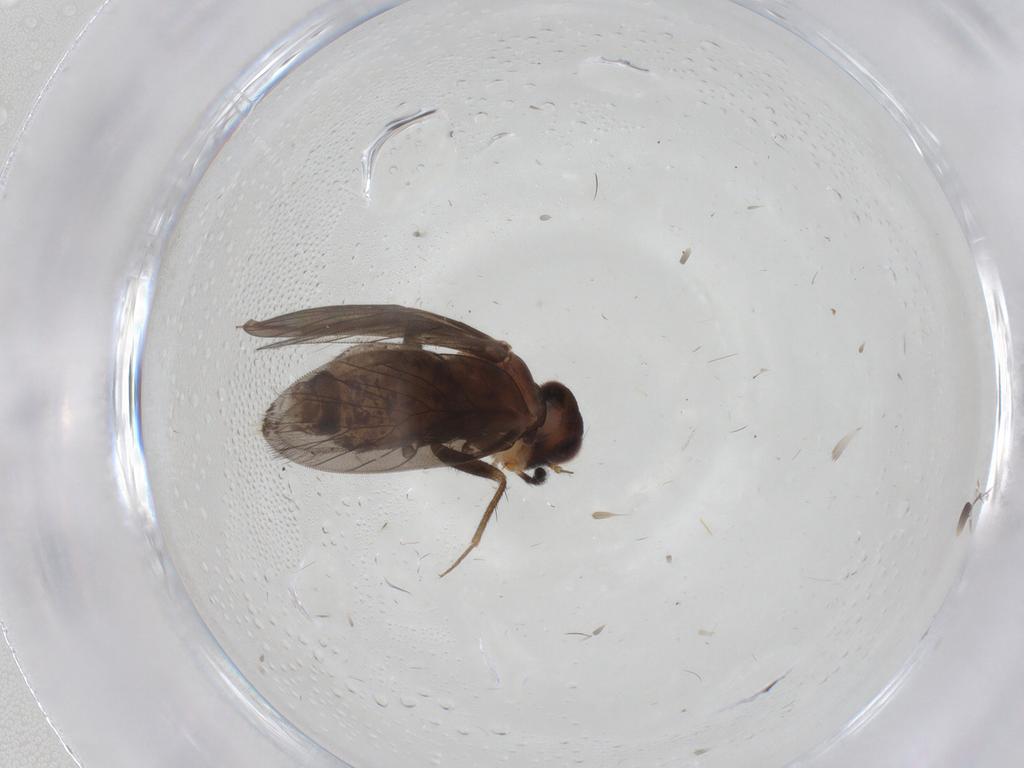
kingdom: Animalia
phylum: Arthropoda
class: Insecta
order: Psocodea
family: Lepidopsocidae
